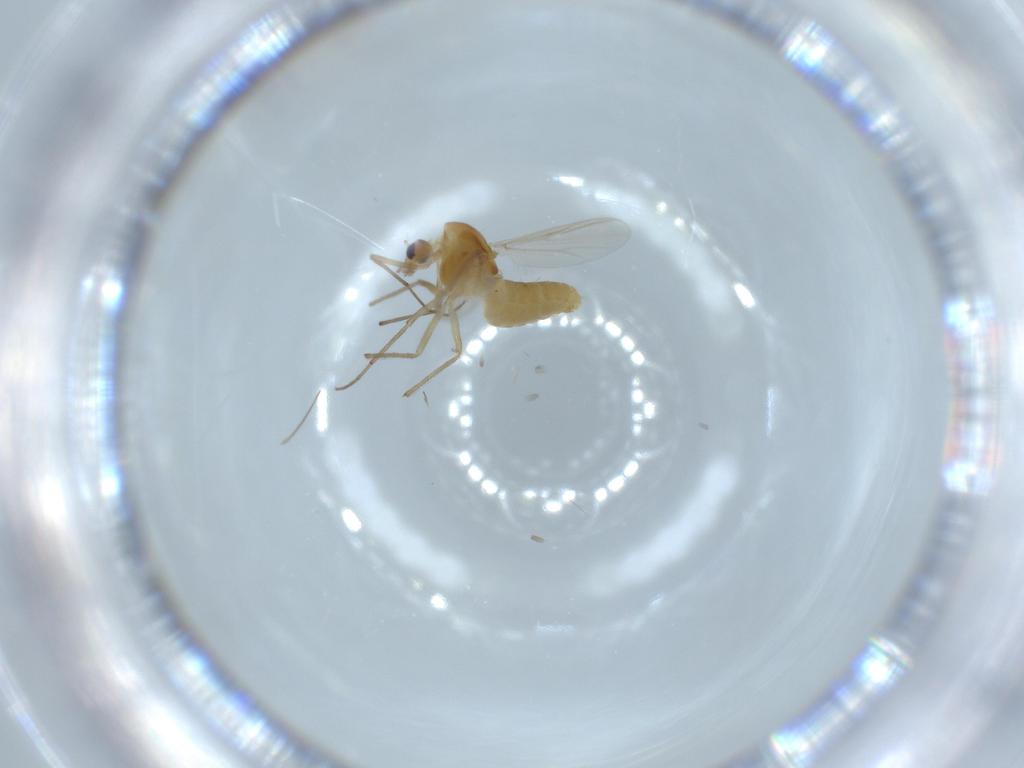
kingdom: Animalia
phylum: Arthropoda
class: Insecta
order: Diptera
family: Chironomidae
